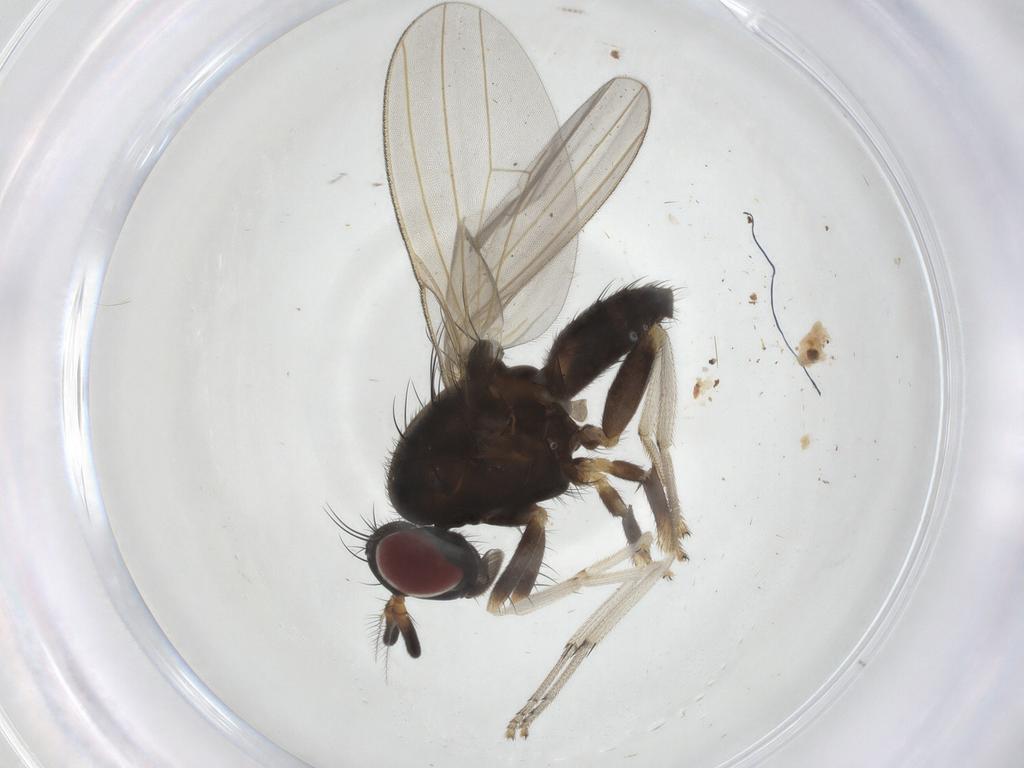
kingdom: Animalia
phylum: Arthropoda
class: Insecta
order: Diptera
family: Lauxaniidae
